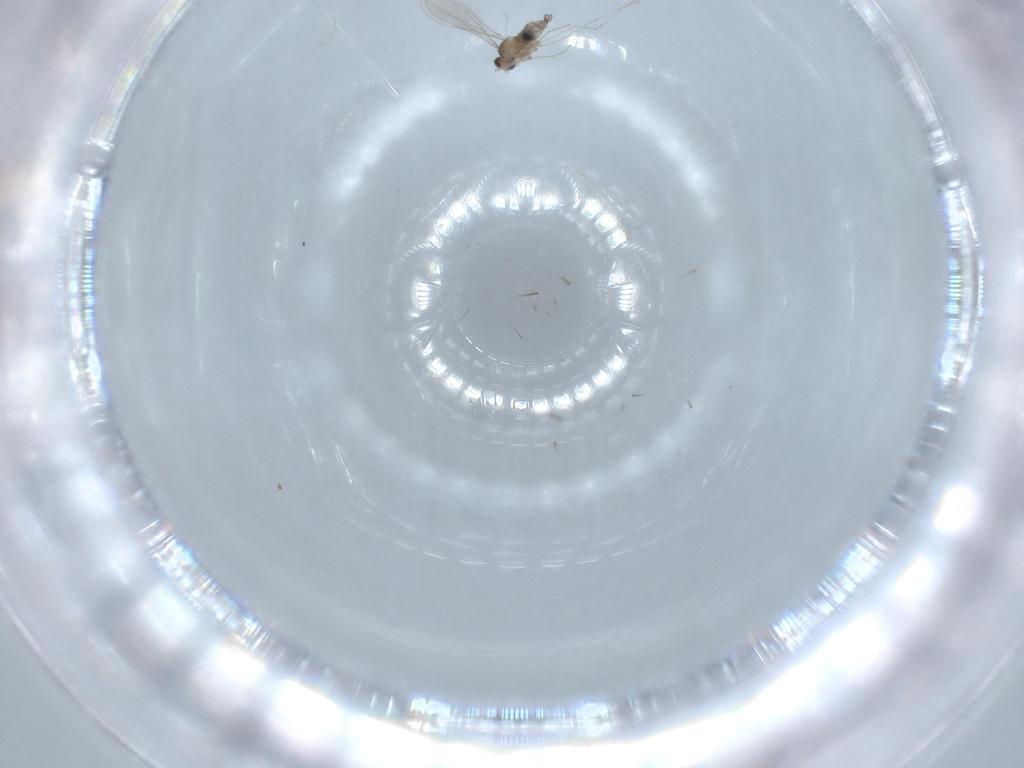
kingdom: Animalia
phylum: Arthropoda
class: Insecta
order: Diptera
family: Cecidomyiidae
